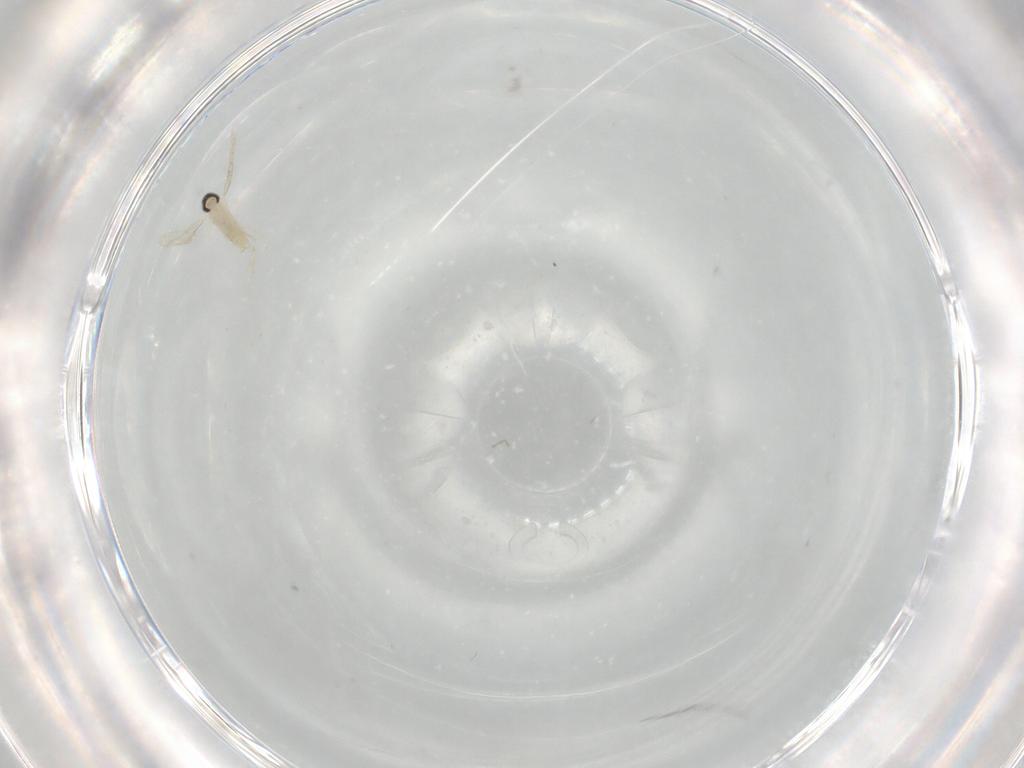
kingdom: Animalia
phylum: Arthropoda
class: Insecta
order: Diptera
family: Cecidomyiidae
